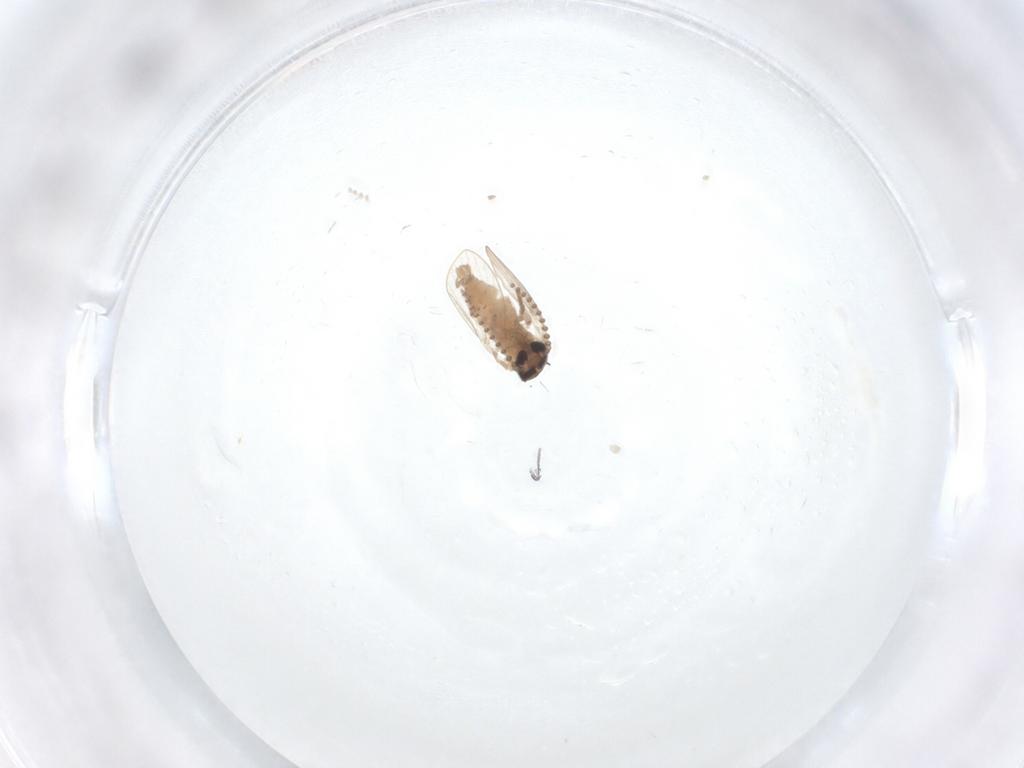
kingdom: Animalia
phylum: Arthropoda
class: Insecta
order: Diptera
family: Psychodidae
